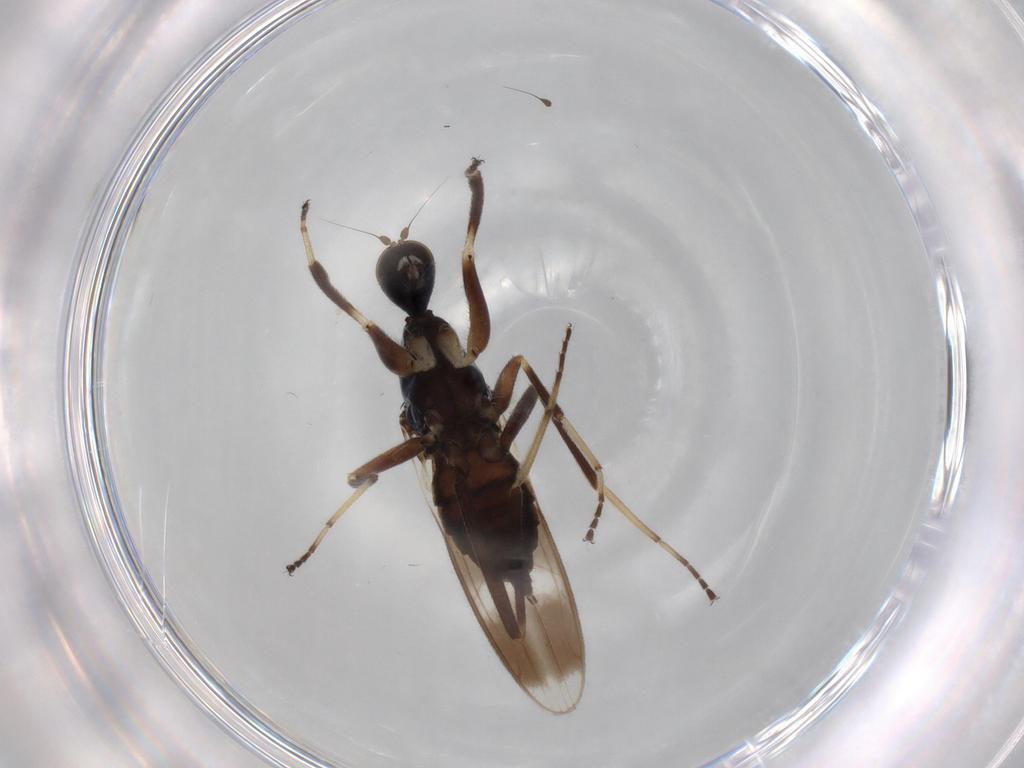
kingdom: Animalia
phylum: Arthropoda
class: Insecta
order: Diptera
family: Hybotidae
